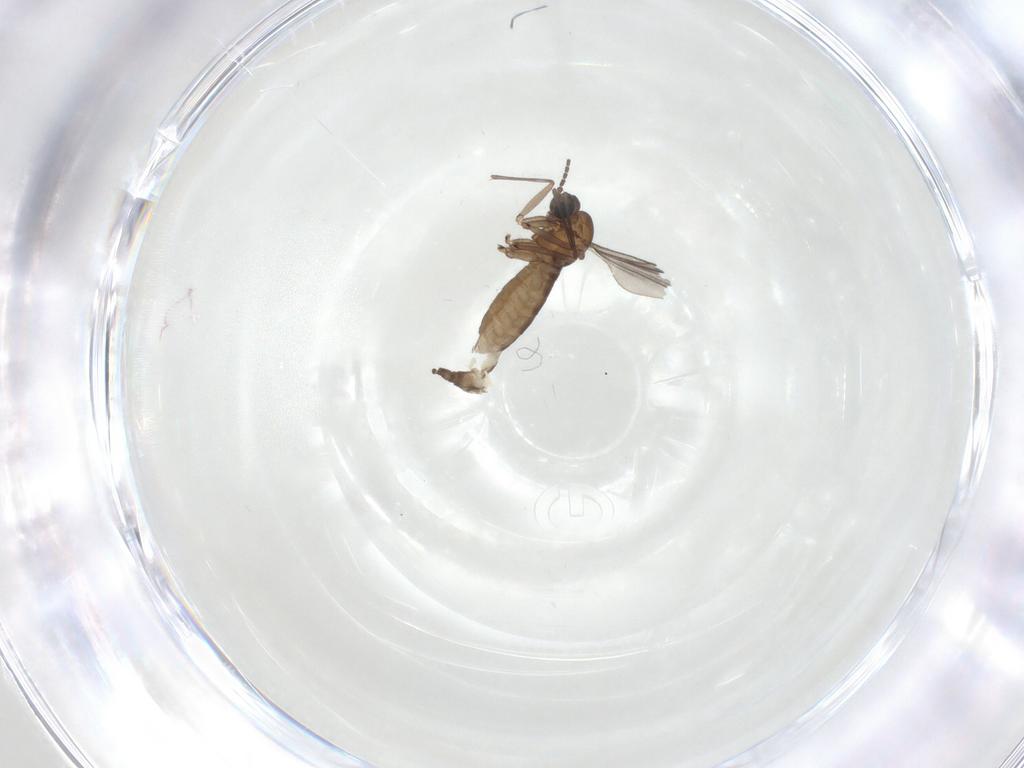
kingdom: Animalia
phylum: Arthropoda
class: Insecta
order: Diptera
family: Sciaridae
